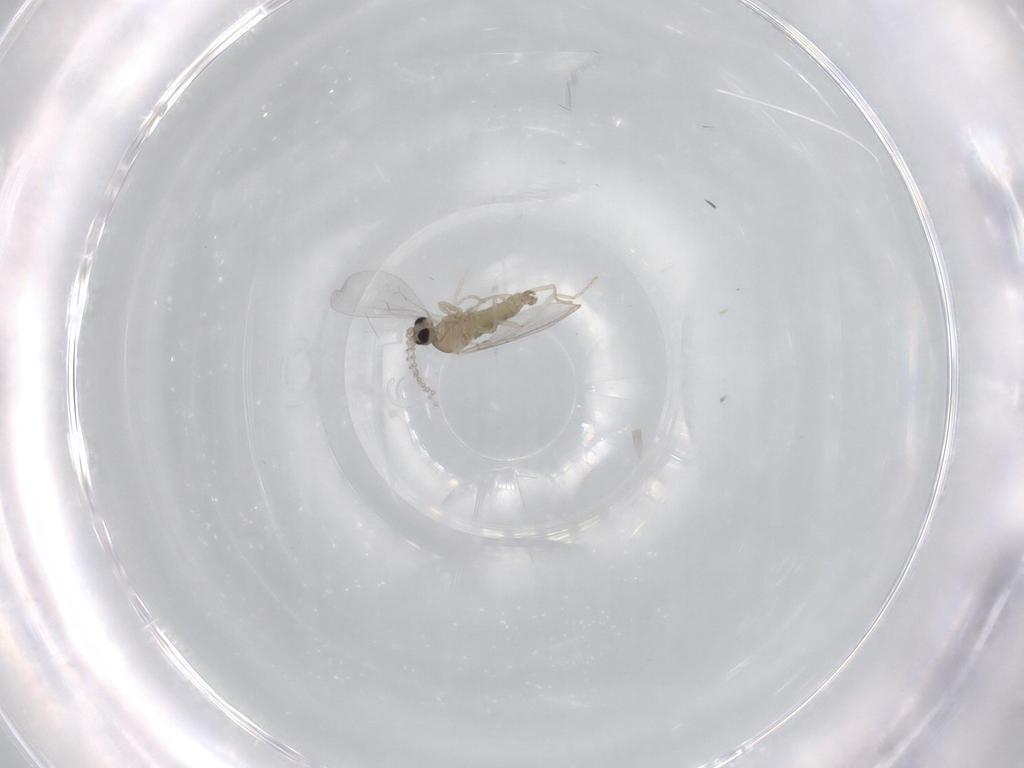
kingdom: Animalia
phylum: Arthropoda
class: Insecta
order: Diptera
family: Cecidomyiidae
